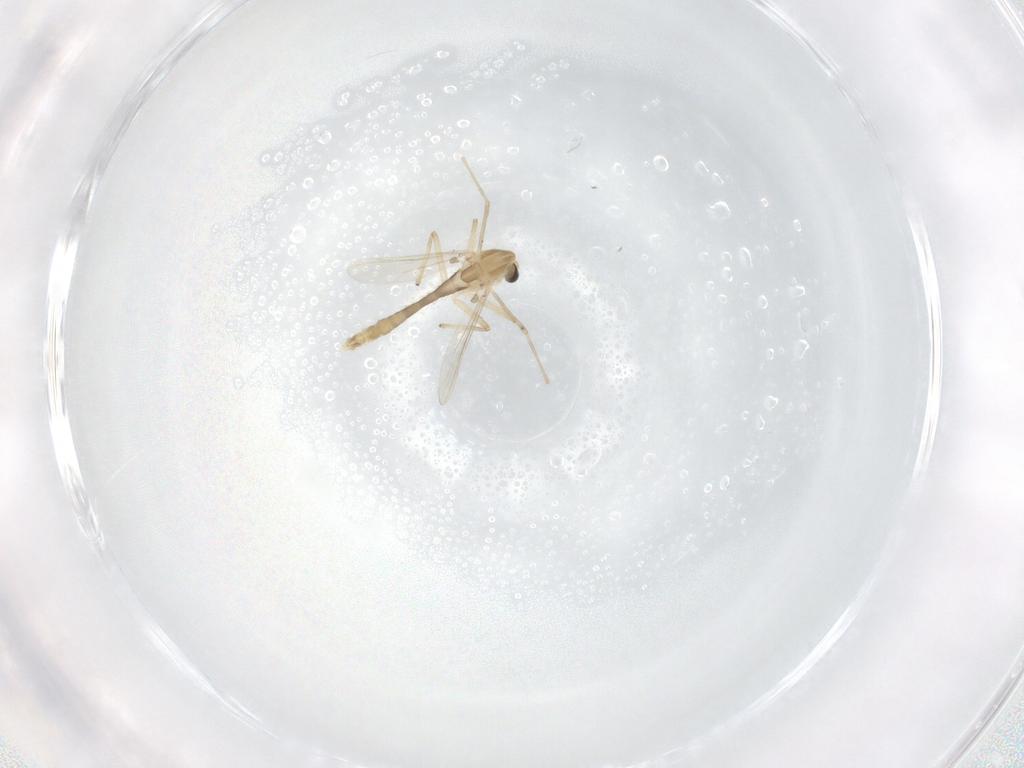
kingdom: Animalia
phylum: Arthropoda
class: Insecta
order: Diptera
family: Chironomidae
